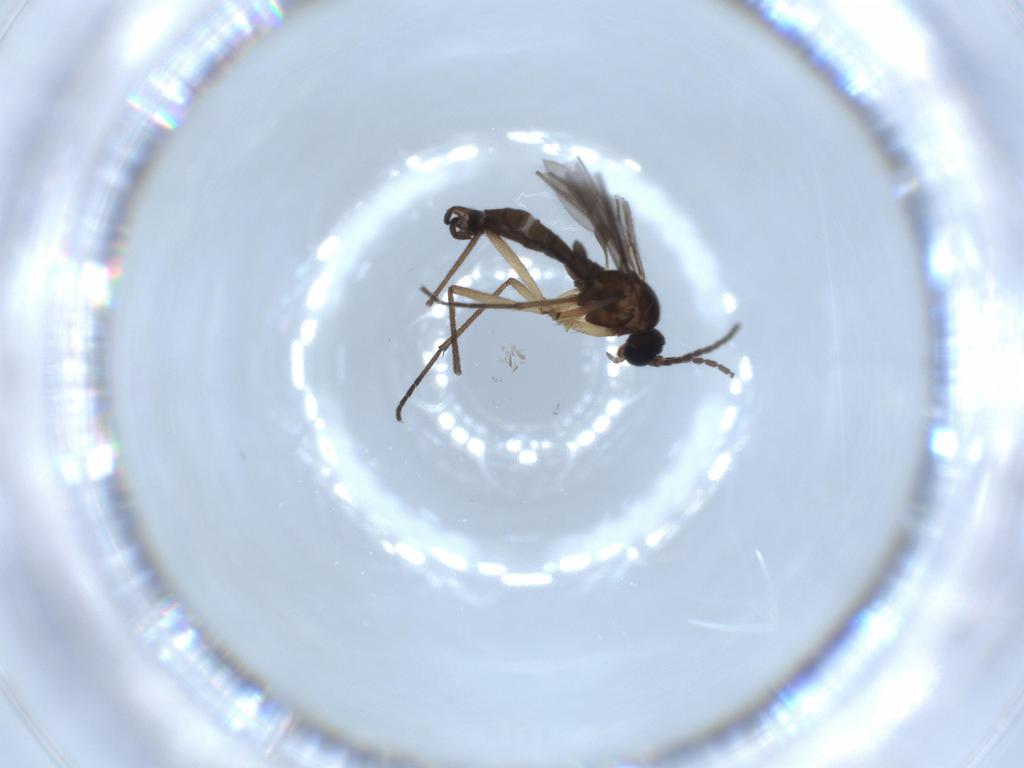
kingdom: Animalia
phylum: Arthropoda
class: Insecta
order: Diptera
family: Sciaridae
